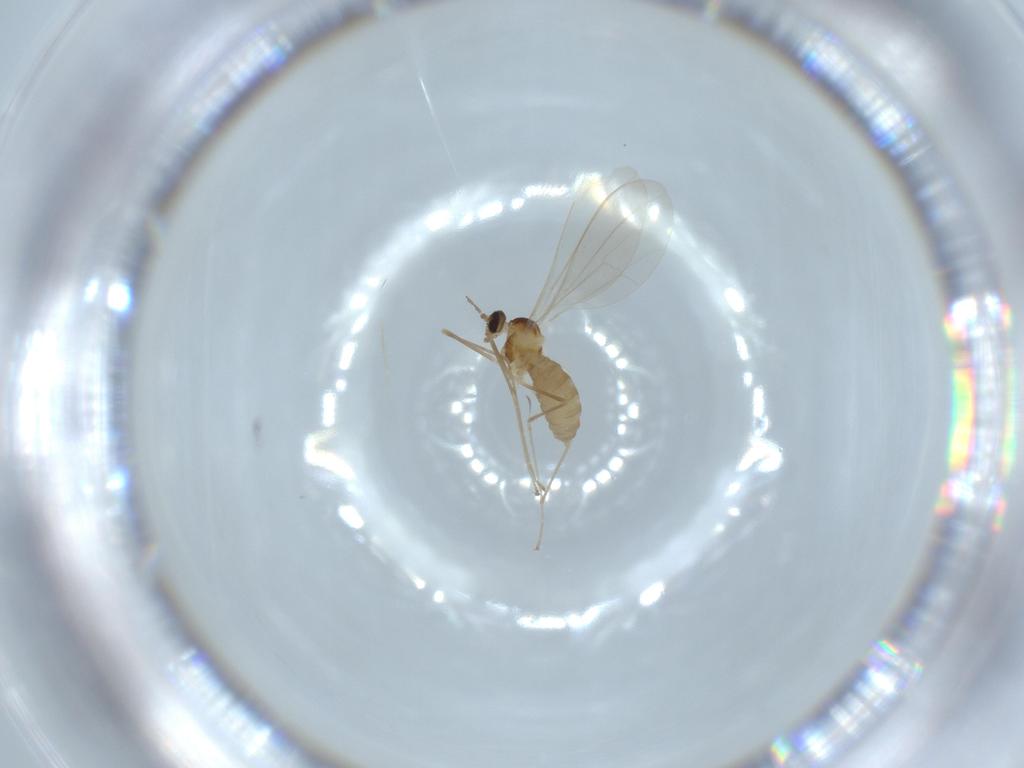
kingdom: Animalia
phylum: Arthropoda
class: Insecta
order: Diptera
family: Cecidomyiidae
